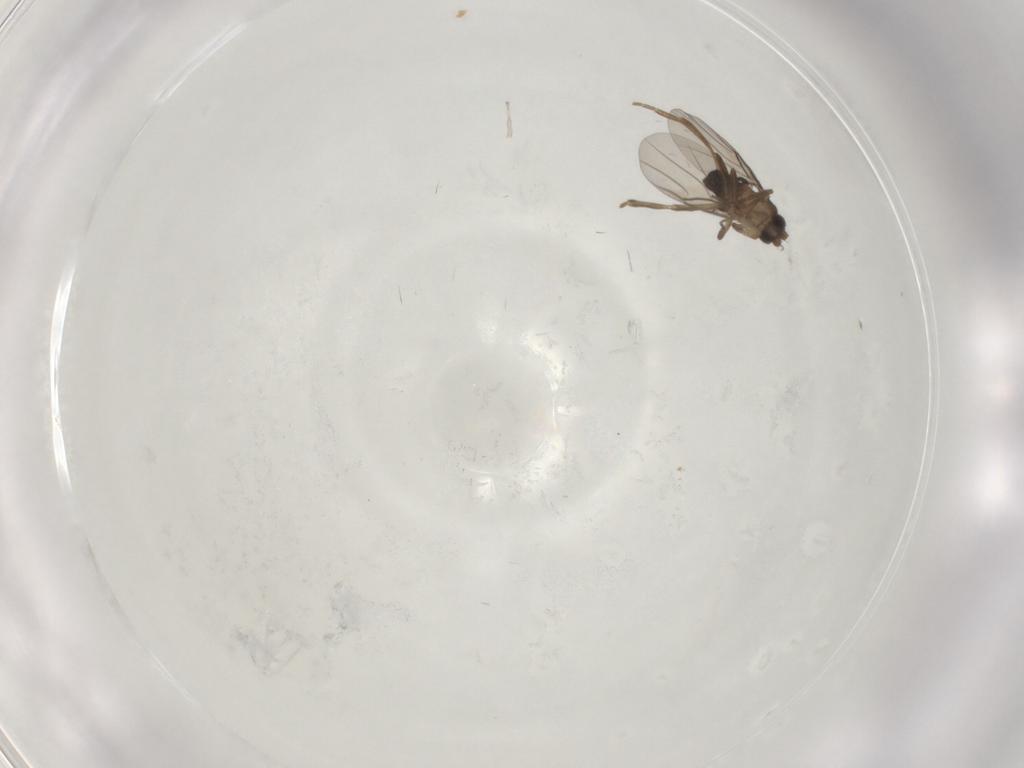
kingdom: Animalia
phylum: Arthropoda
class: Insecta
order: Diptera
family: Phoridae
